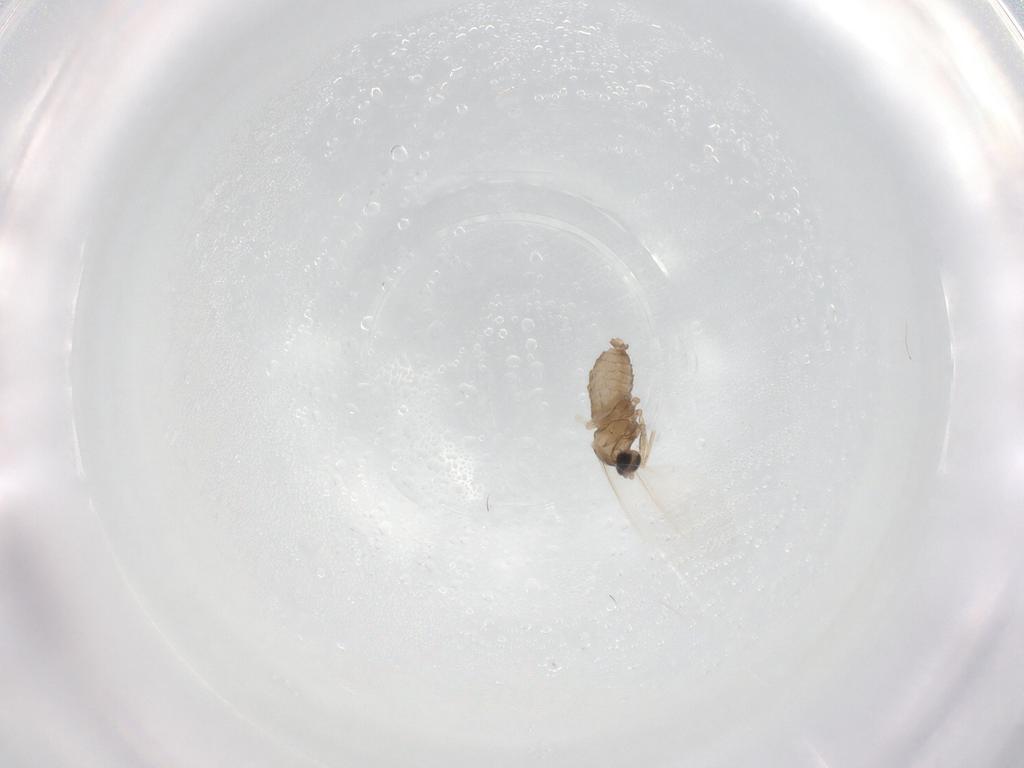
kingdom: Animalia
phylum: Arthropoda
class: Insecta
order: Diptera
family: Cecidomyiidae
